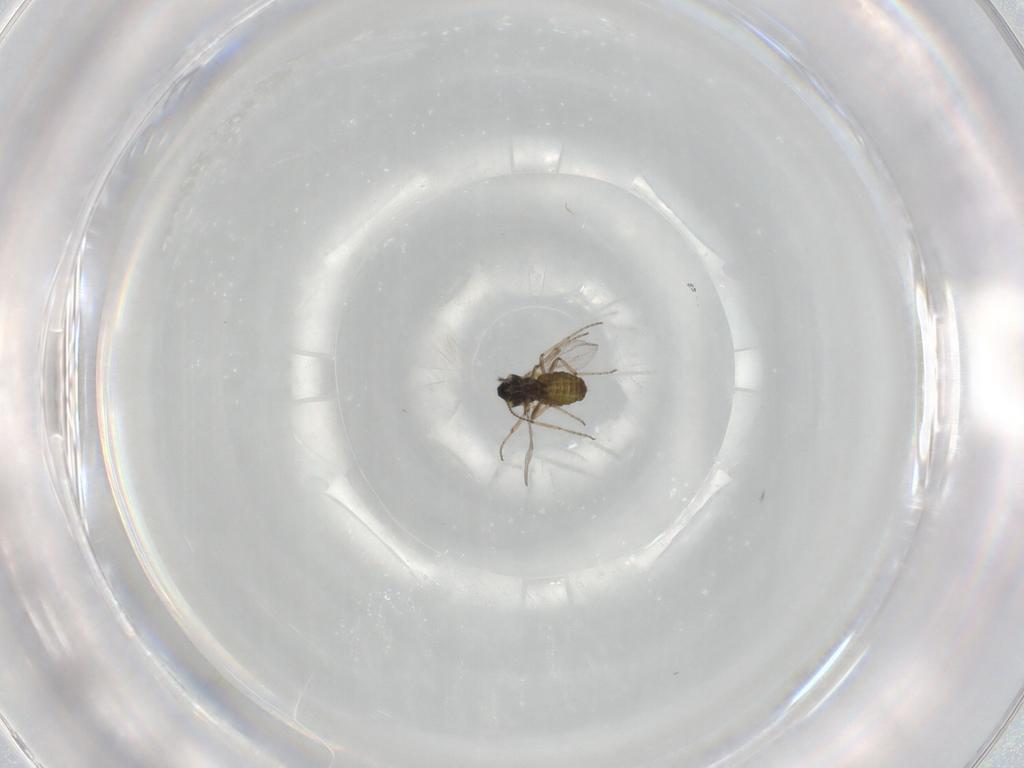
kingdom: Animalia
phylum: Arthropoda
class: Insecta
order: Diptera
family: Ceratopogonidae
